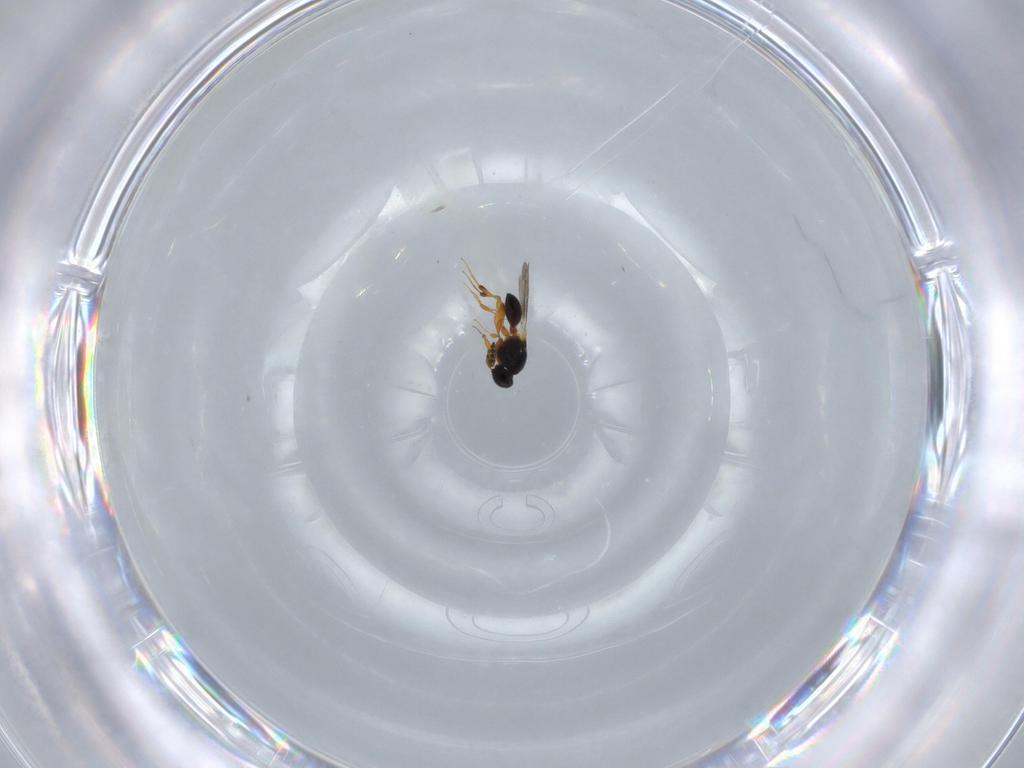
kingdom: Animalia
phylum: Arthropoda
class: Insecta
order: Hymenoptera
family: Platygastridae
